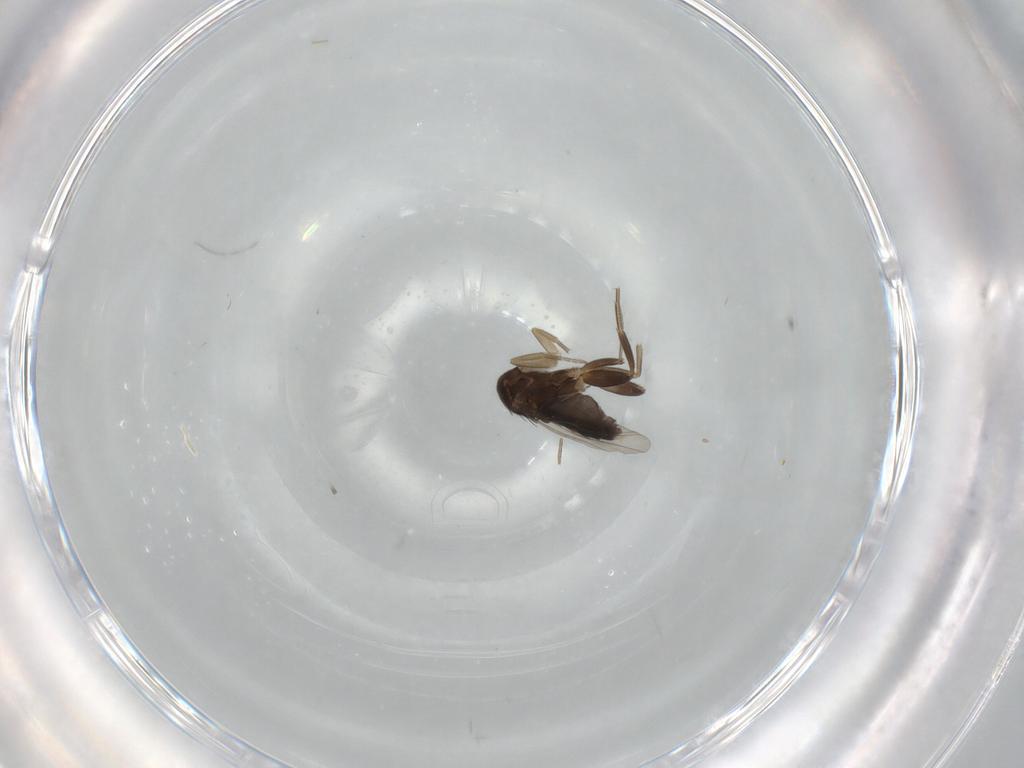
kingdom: Animalia
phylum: Arthropoda
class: Insecta
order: Diptera
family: Phoridae
